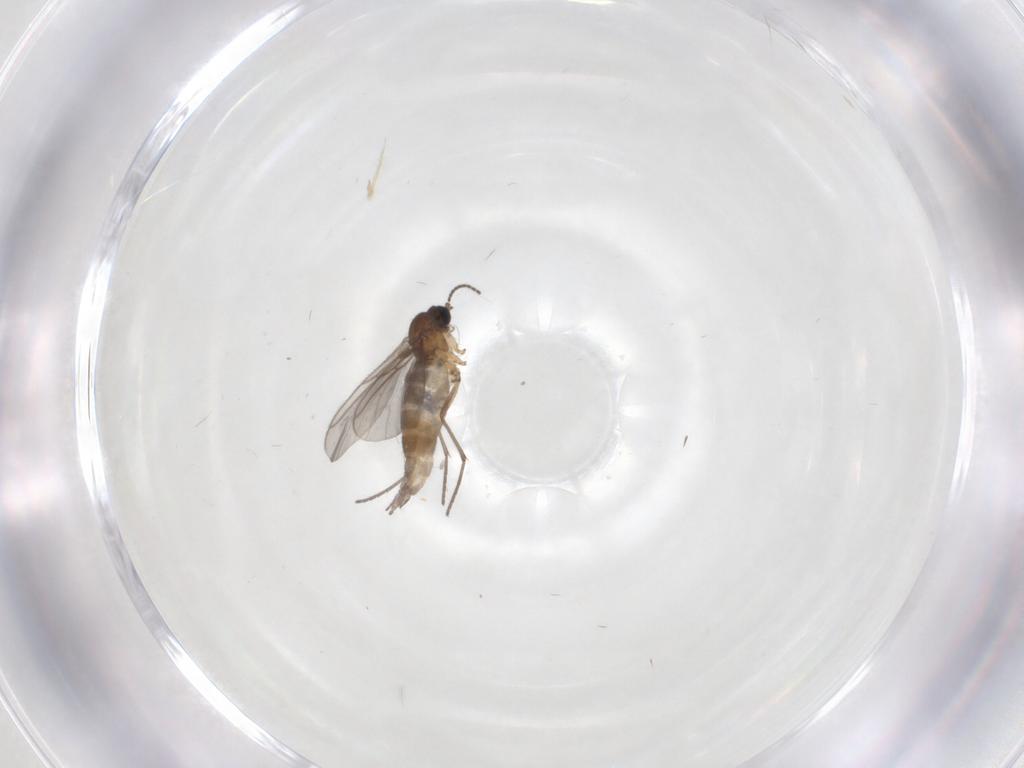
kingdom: Animalia
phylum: Arthropoda
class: Insecta
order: Diptera
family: Sciaridae
